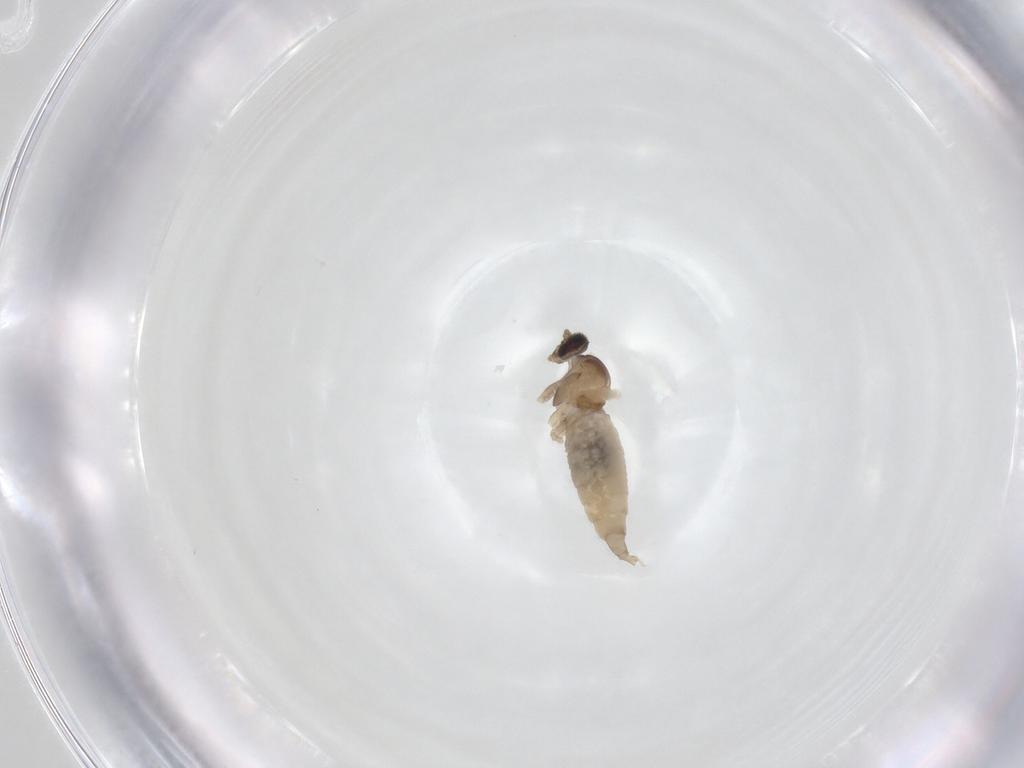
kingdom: Animalia
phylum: Arthropoda
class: Insecta
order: Diptera
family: Cecidomyiidae
